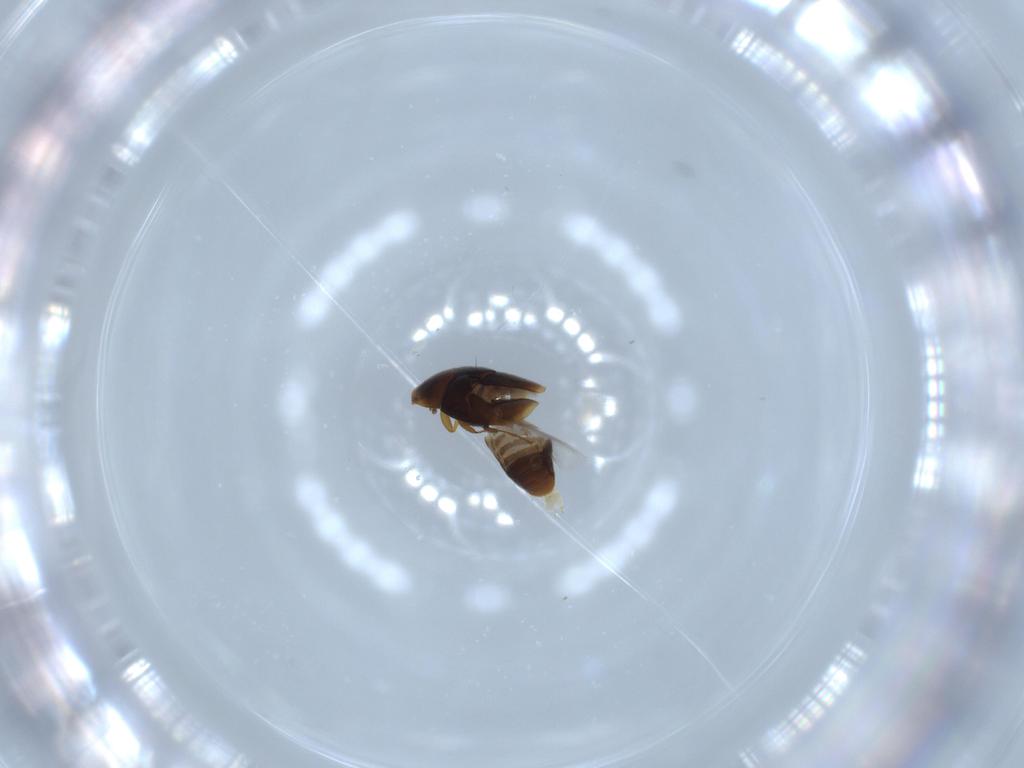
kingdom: Animalia
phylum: Arthropoda
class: Insecta
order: Coleoptera
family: Corylophidae
